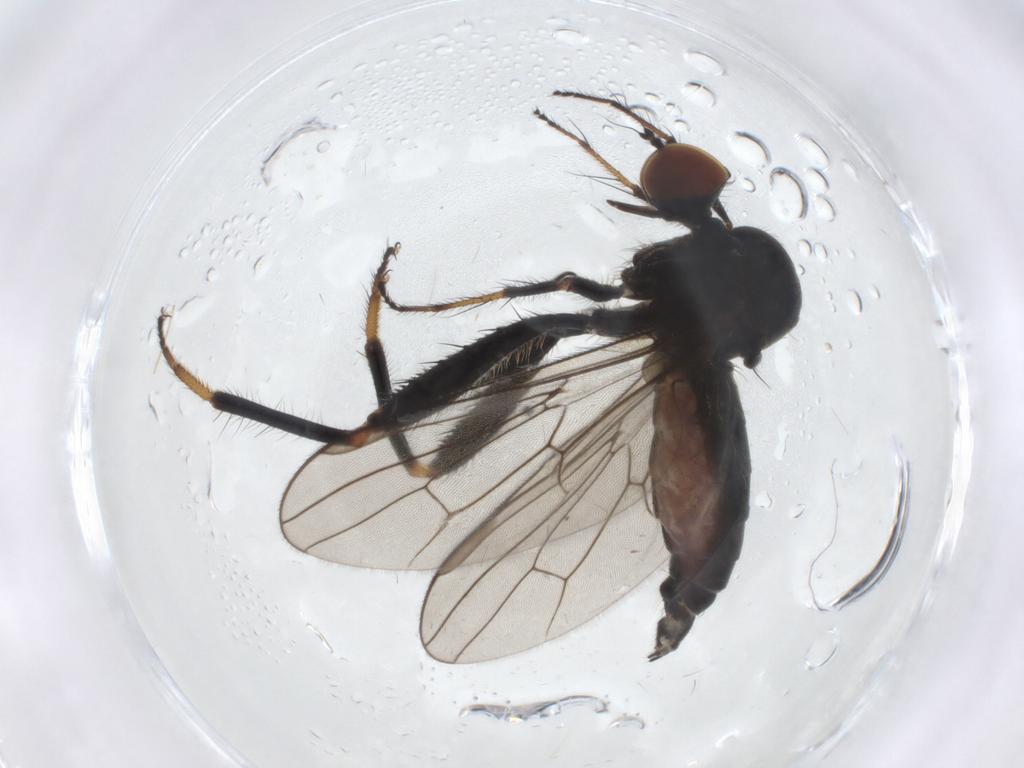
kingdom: Animalia
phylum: Arthropoda
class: Insecta
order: Diptera
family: Hybotidae
